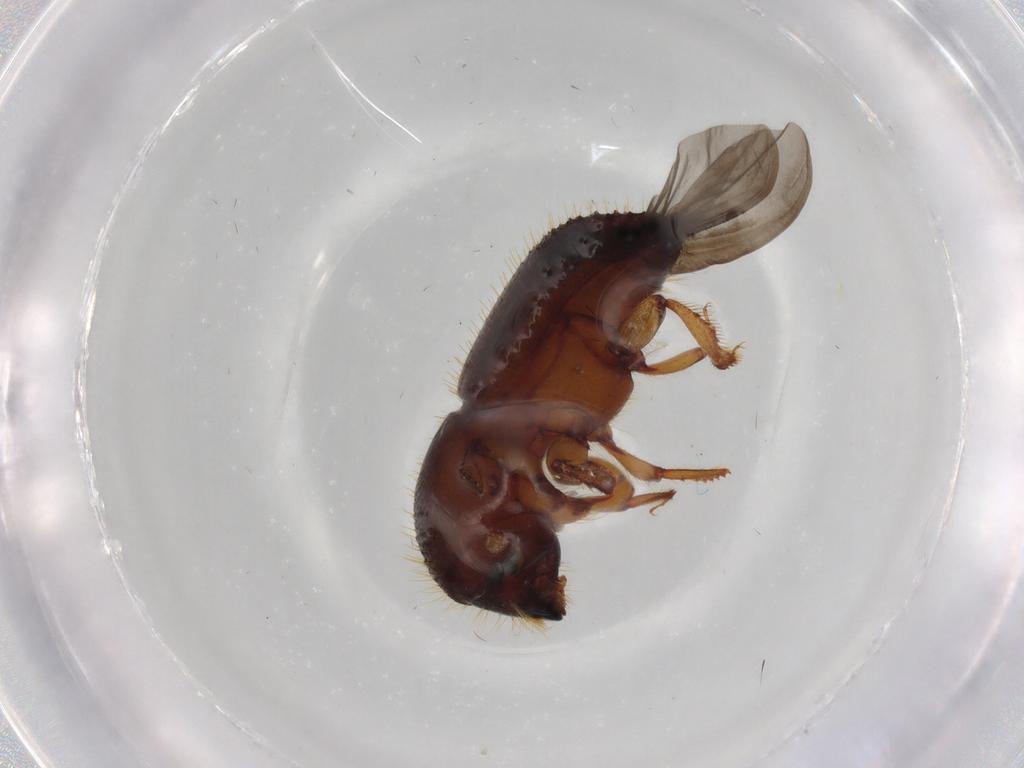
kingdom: Animalia
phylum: Arthropoda
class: Insecta
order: Coleoptera
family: Curculionidae
